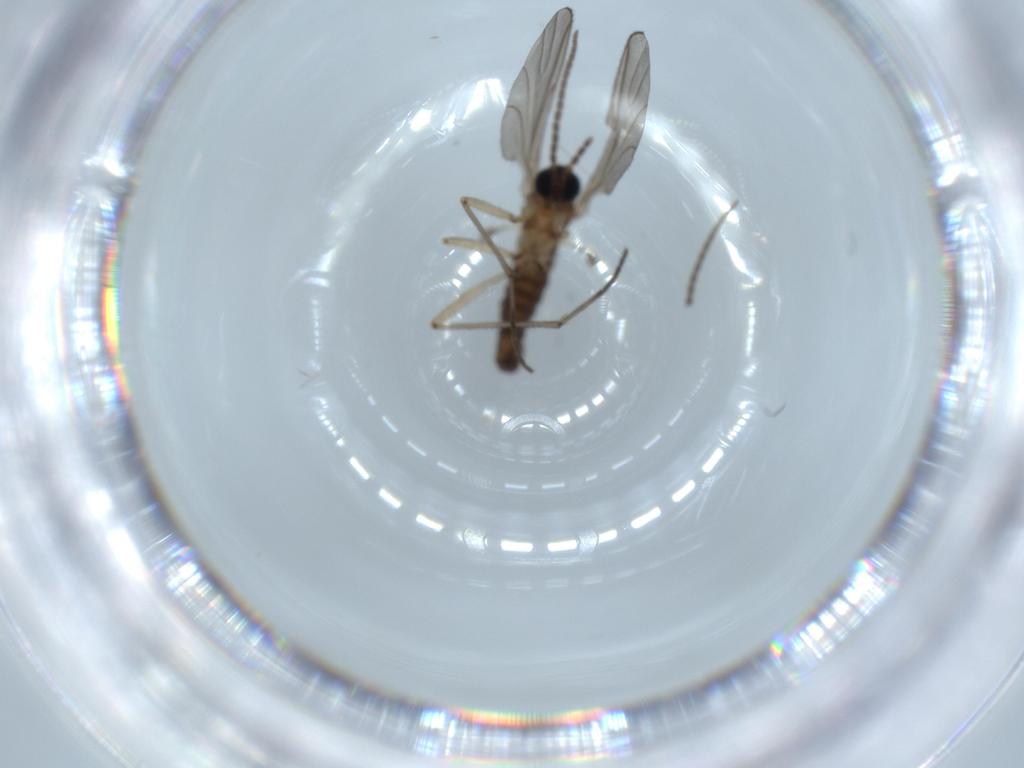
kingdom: Animalia
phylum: Arthropoda
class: Insecta
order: Diptera
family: Sciaridae
